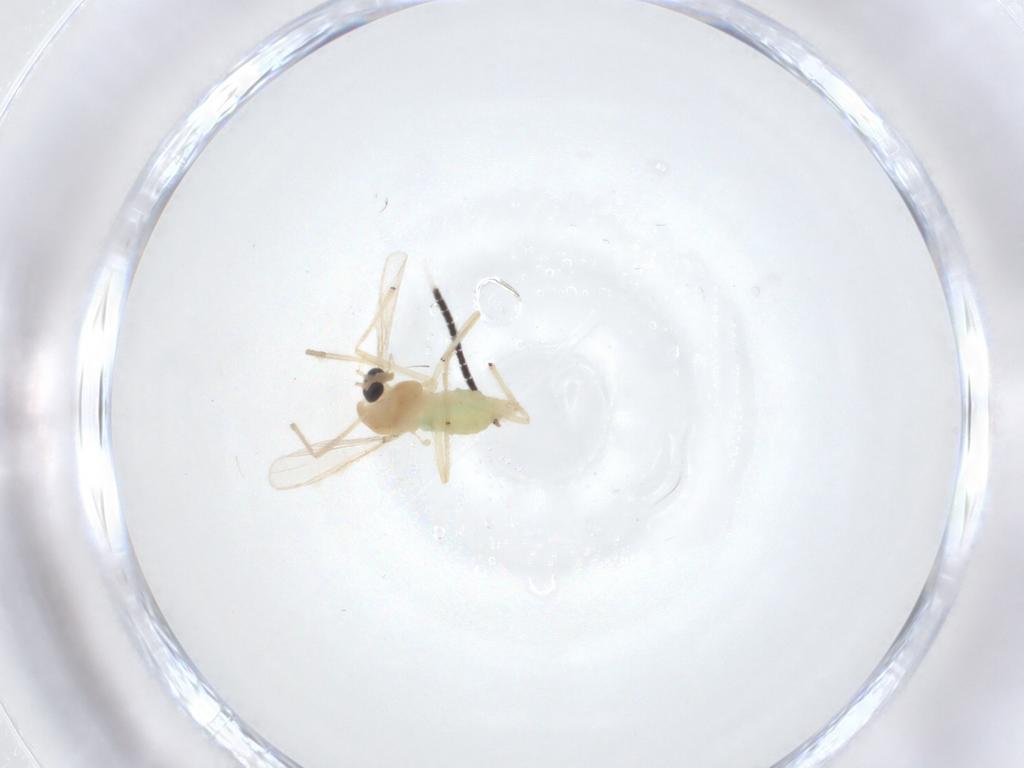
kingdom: Animalia
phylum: Arthropoda
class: Insecta
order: Diptera
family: Chironomidae
